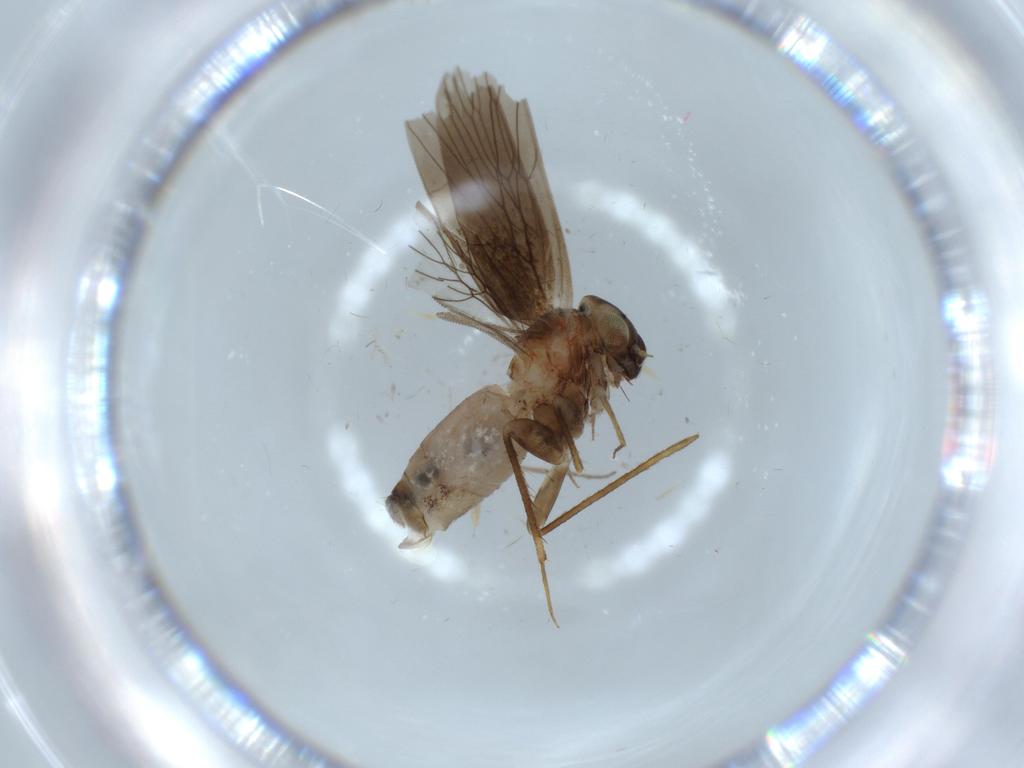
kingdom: Animalia
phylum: Arthropoda
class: Insecta
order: Psocodea
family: Lepidopsocidae
